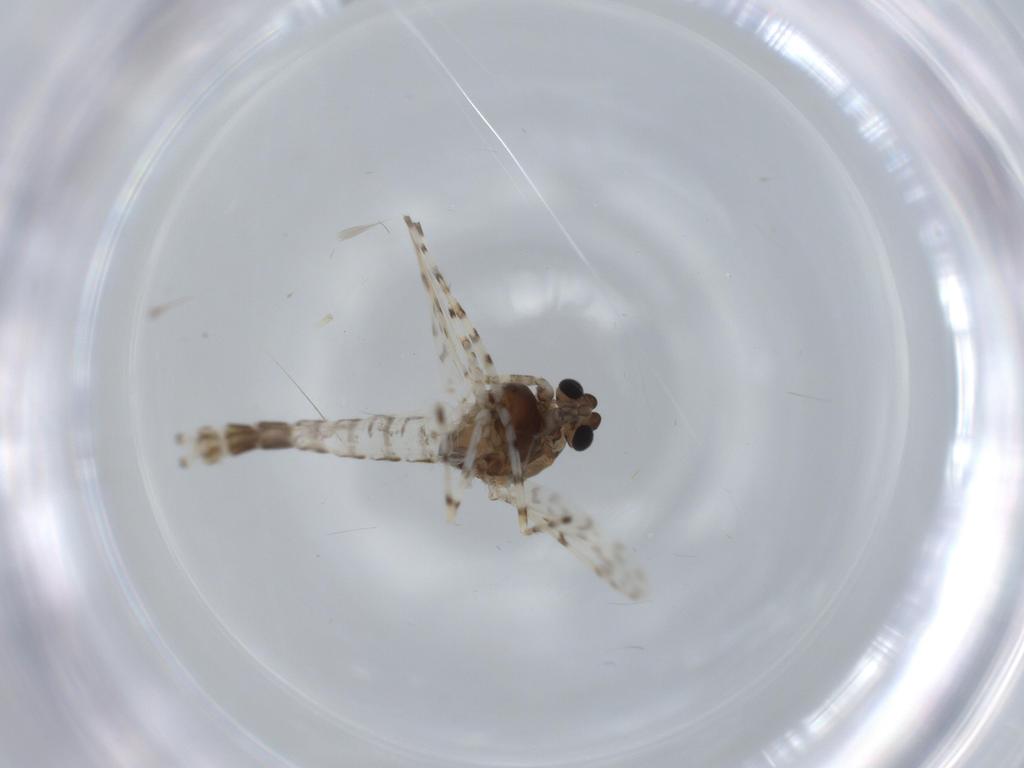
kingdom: Animalia
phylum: Arthropoda
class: Insecta
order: Diptera
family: Chironomidae
